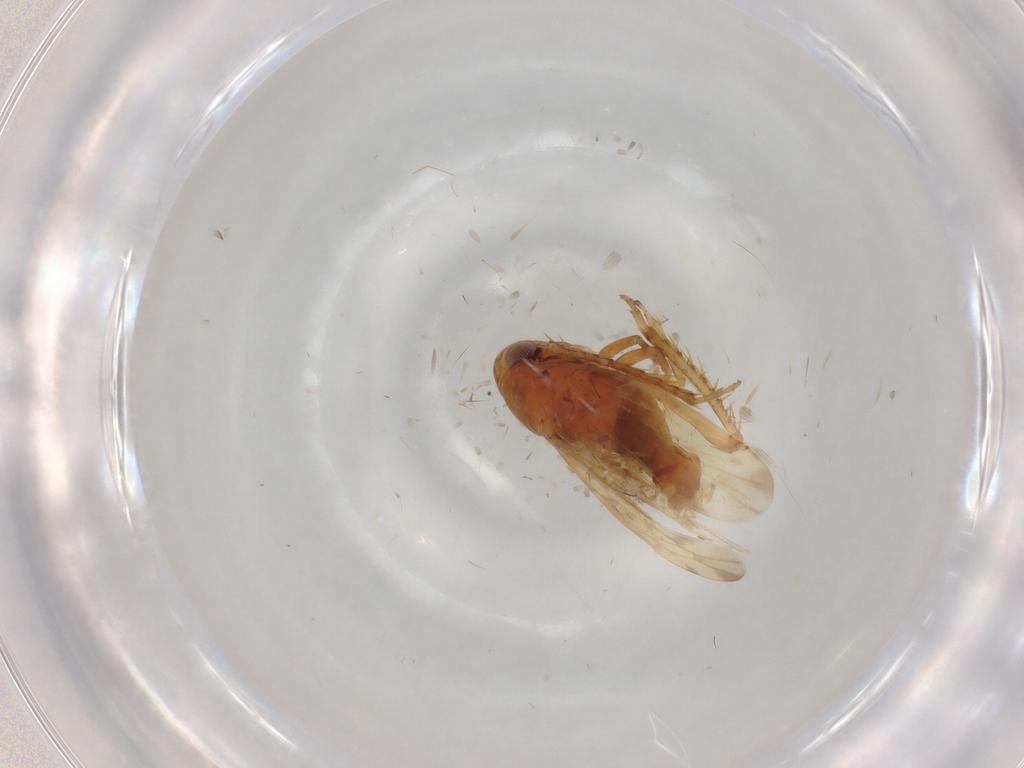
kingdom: Animalia
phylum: Arthropoda
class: Insecta
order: Hemiptera
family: Cicadellidae
